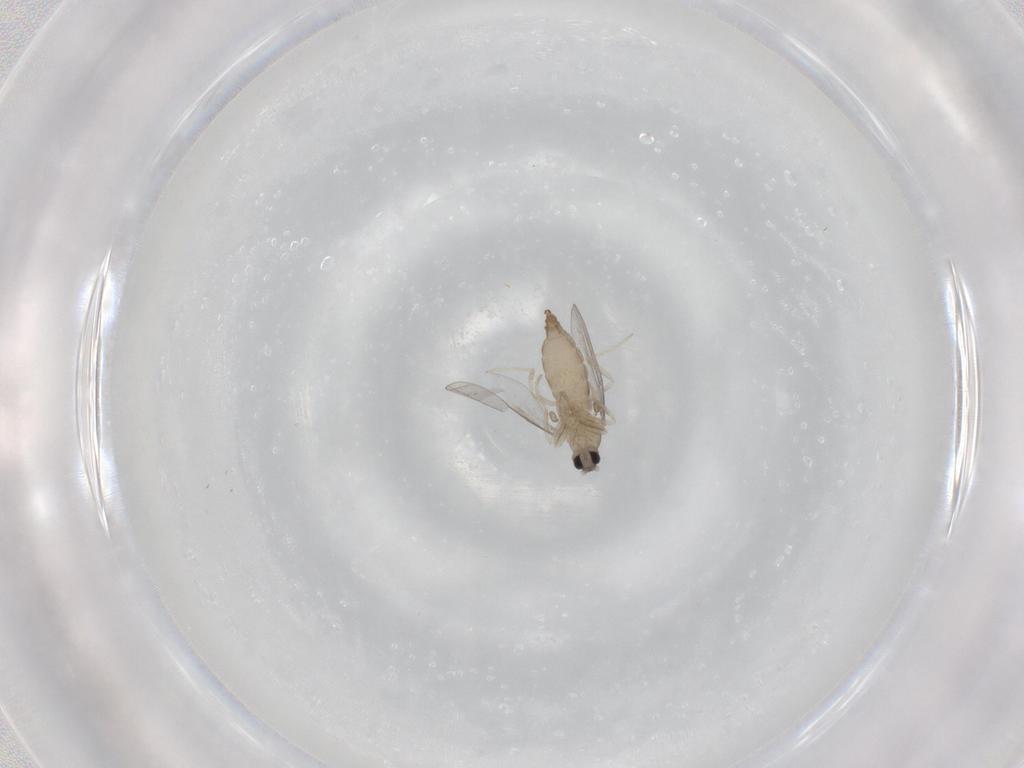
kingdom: Animalia
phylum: Arthropoda
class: Insecta
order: Diptera
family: Cecidomyiidae
